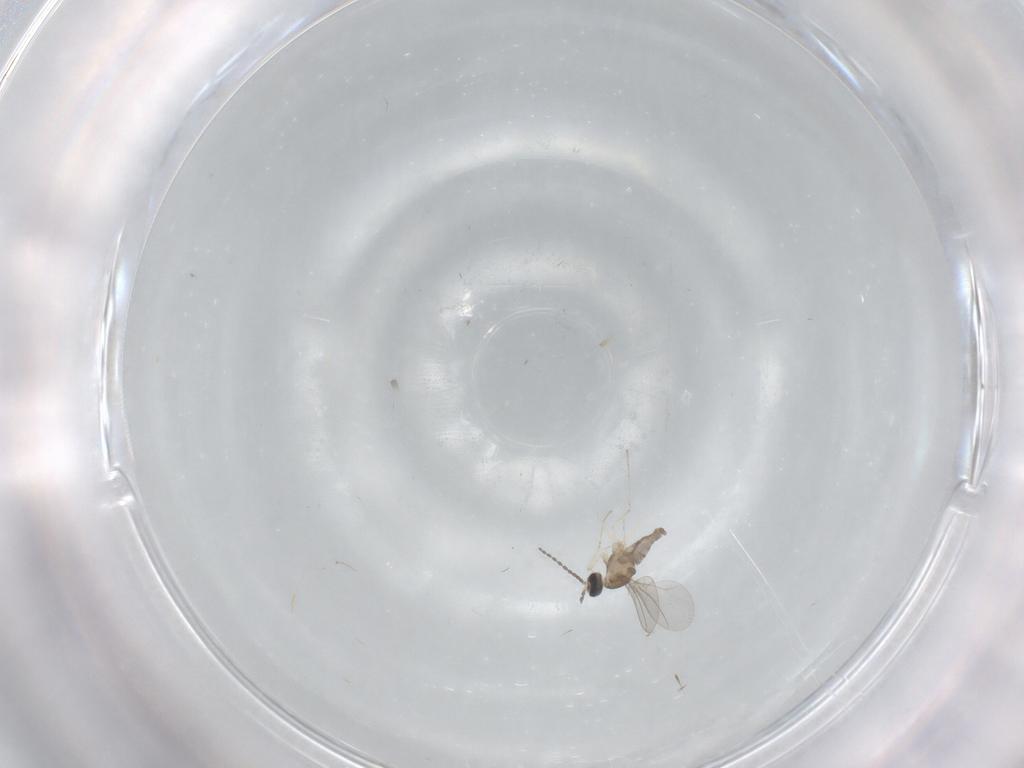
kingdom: Animalia
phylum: Arthropoda
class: Insecta
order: Diptera
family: Cecidomyiidae
